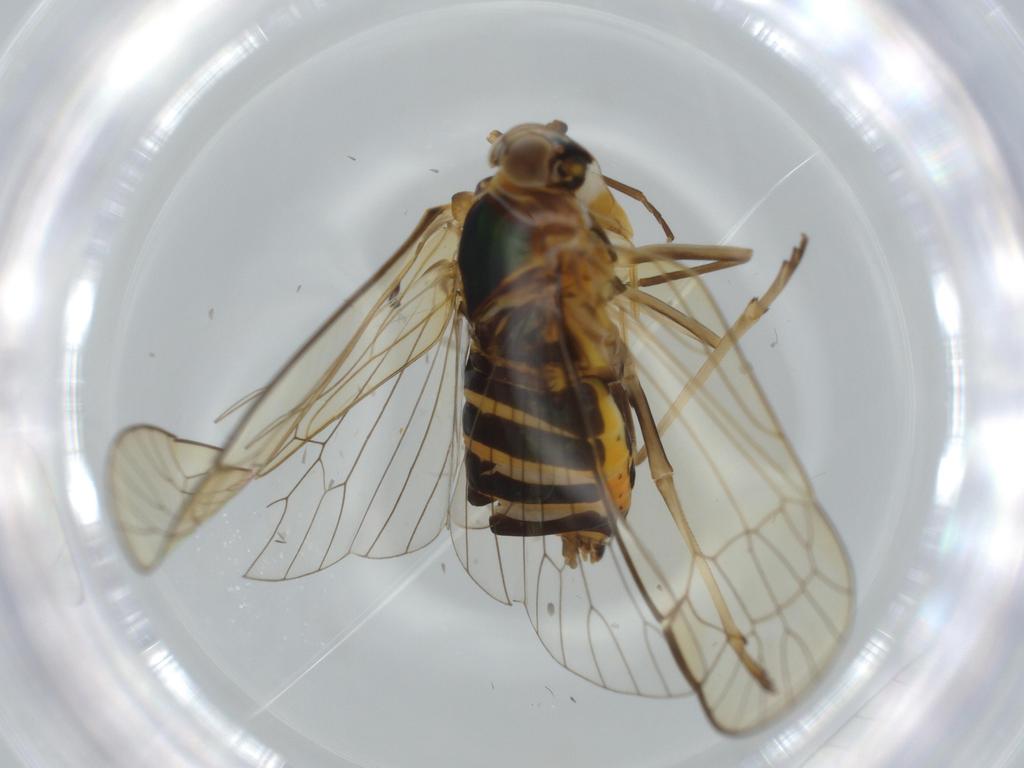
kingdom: Animalia
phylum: Arthropoda
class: Insecta
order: Hemiptera
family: Kinnaridae
